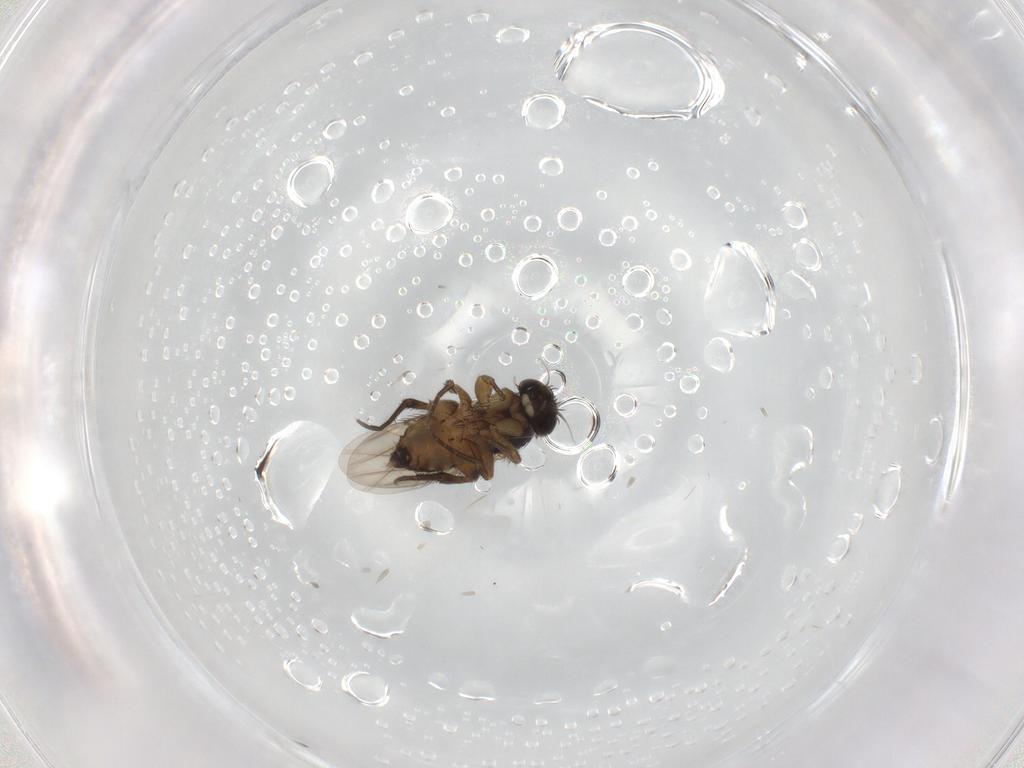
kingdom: Animalia
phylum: Arthropoda
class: Insecta
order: Diptera
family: Phoridae
